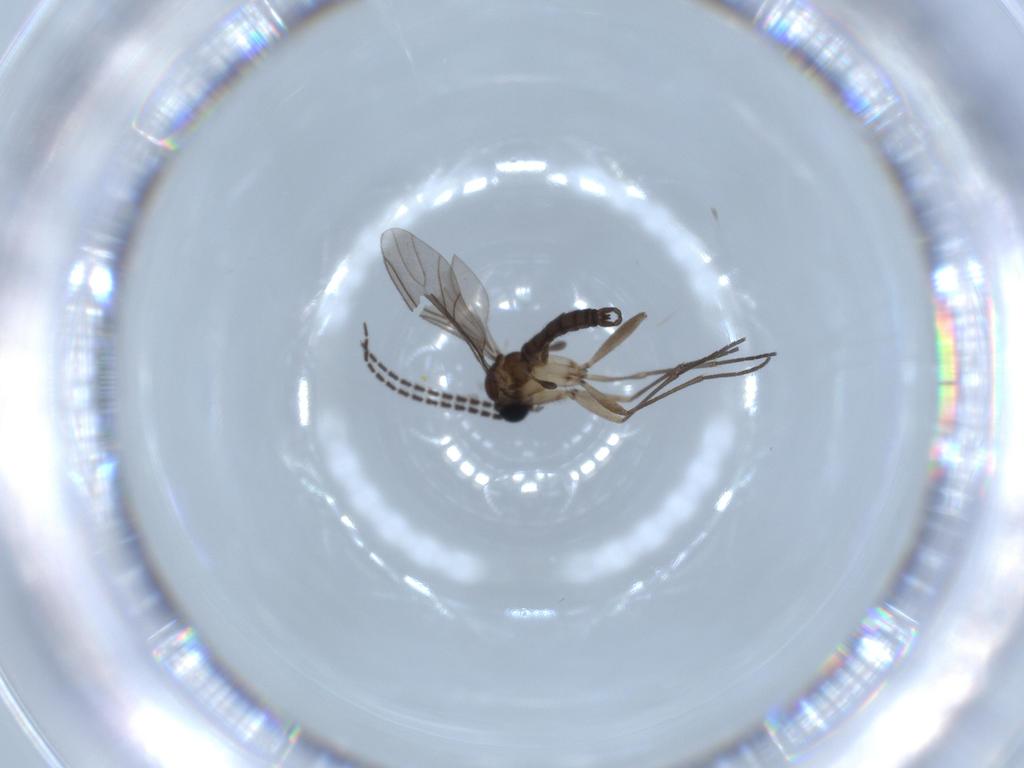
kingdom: Animalia
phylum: Arthropoda
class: Insecta
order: Diptera
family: Sciaridae
